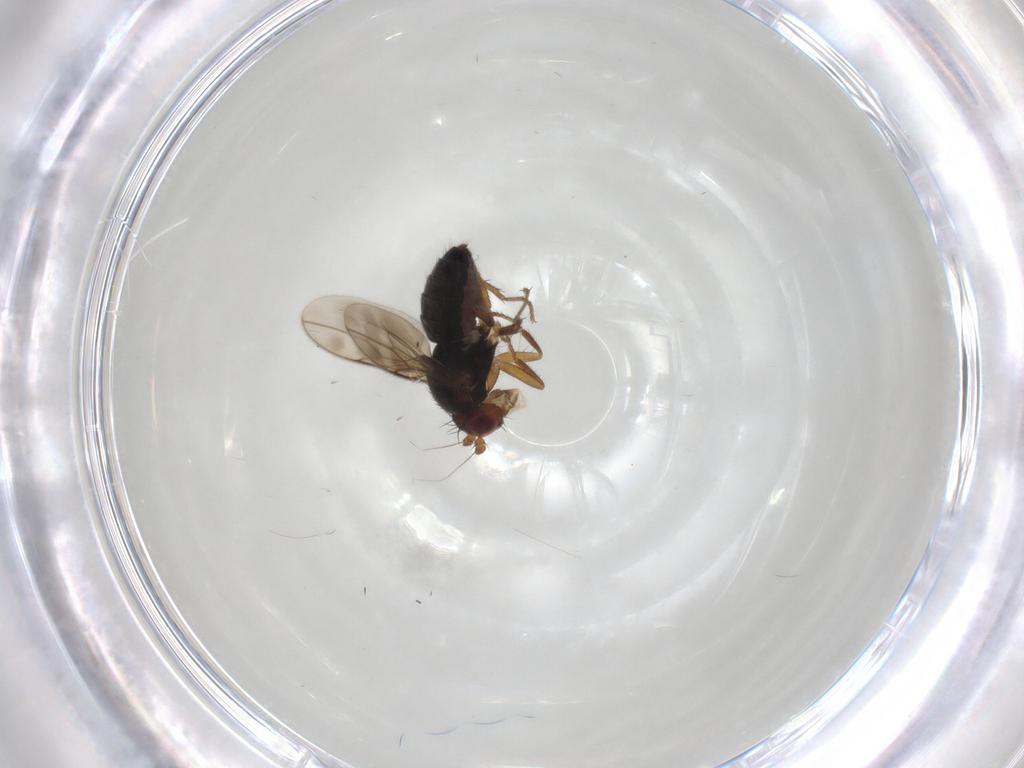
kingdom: Animalia
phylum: Arthropoda
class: Insecta
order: Diptera
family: Sphaeroceridae
